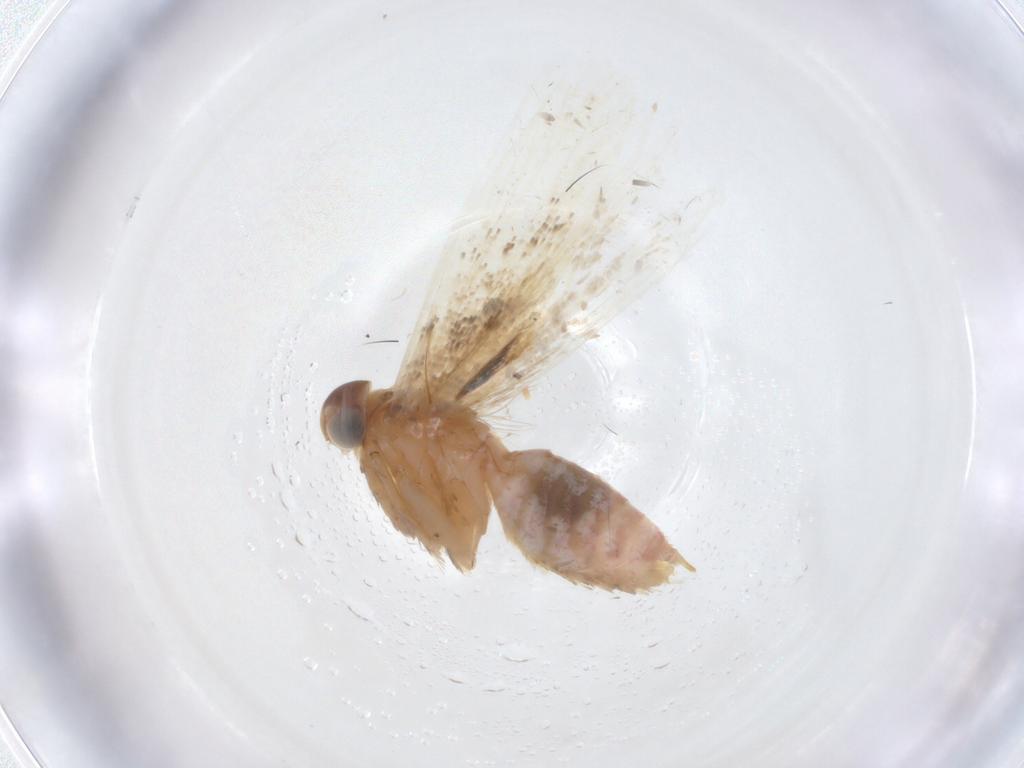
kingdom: Animalia
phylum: Arthropoda
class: Insecta
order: Lepidoptera
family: Gelechiidae
